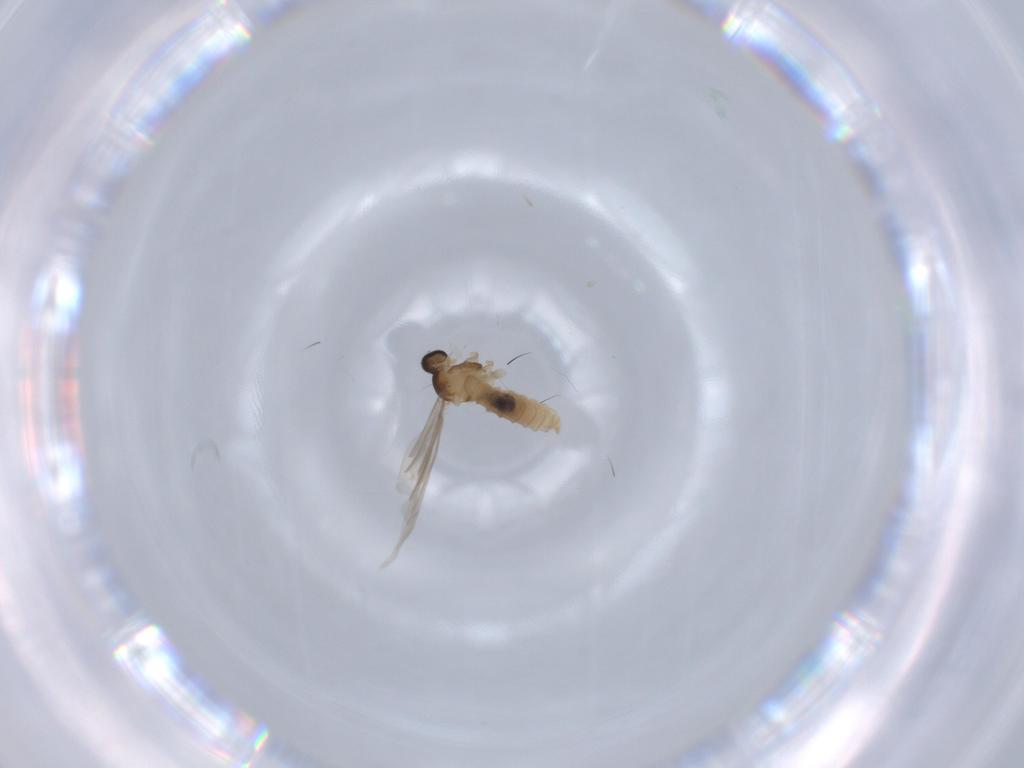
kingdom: Animalia
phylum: Arthropoda
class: Insecta
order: Diptera
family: Culicidae
